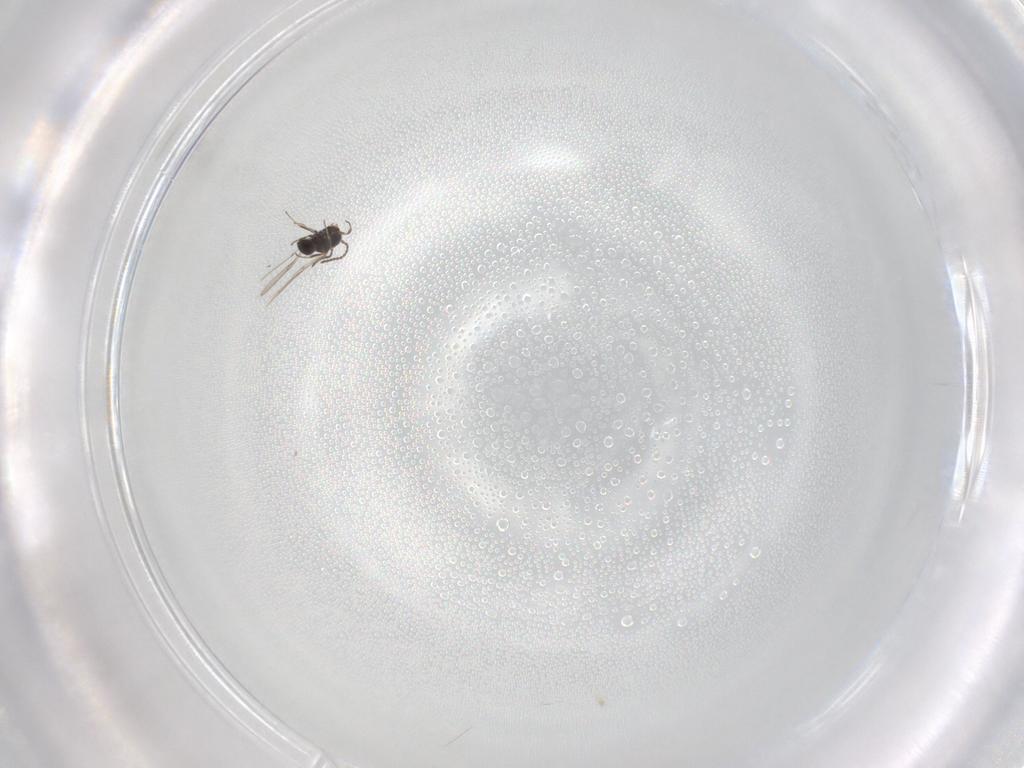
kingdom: Animalia
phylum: Arthropoda
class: Insecta
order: Hymenoptera
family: Scelionidae
